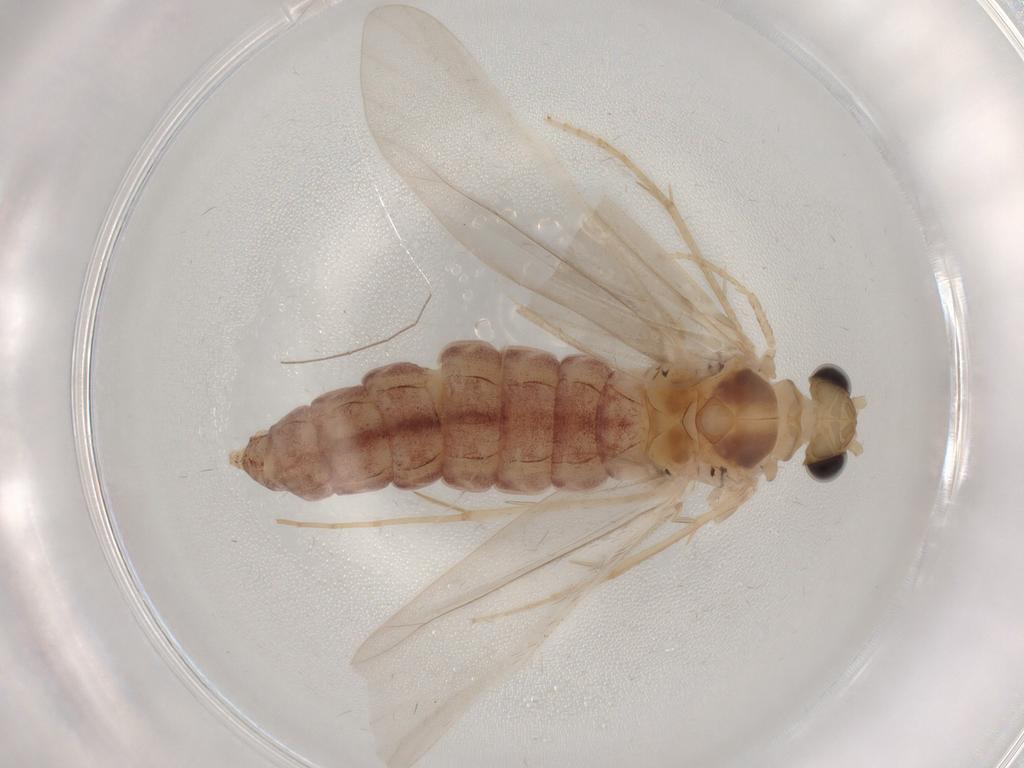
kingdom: Animalia
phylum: Arthropoda
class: Insecta
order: Trichoptera
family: Ecnomidae
